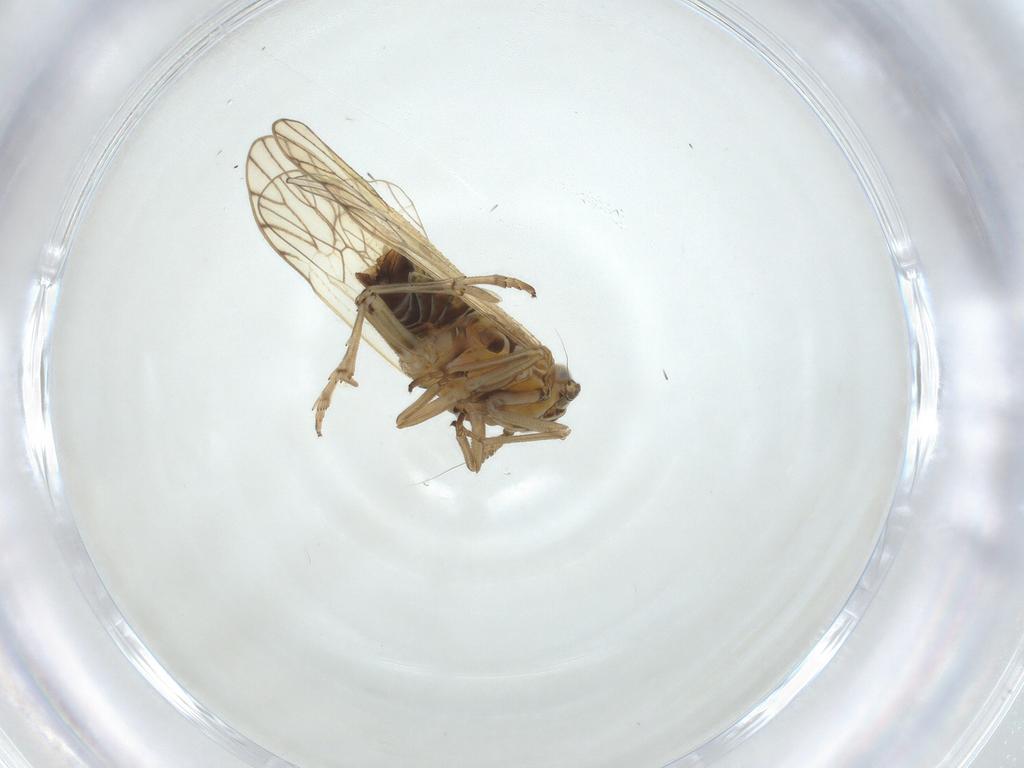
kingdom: Animalia
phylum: Arthropoda
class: Insecta
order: Hemiptera
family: Delphacidae
